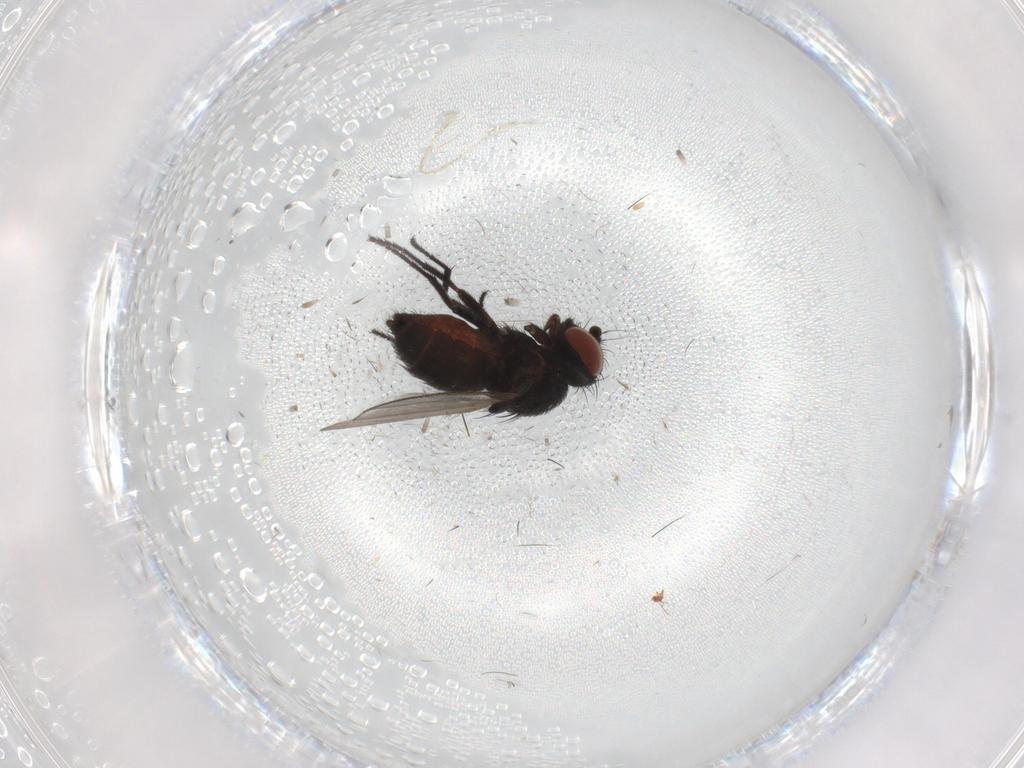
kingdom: Animalia
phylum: Arthropoda
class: Insecta
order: Diptera
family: Milichiidae
